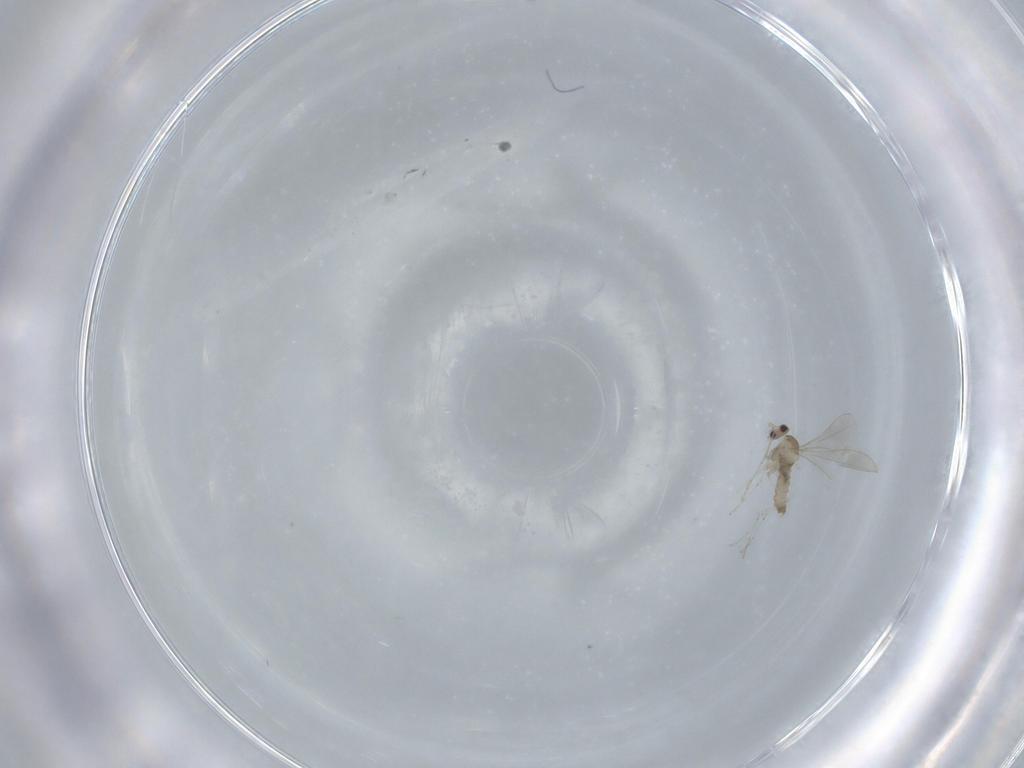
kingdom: Animalia
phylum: Arthropoda
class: Insecta
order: Diptera
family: Cecidomyiidae
